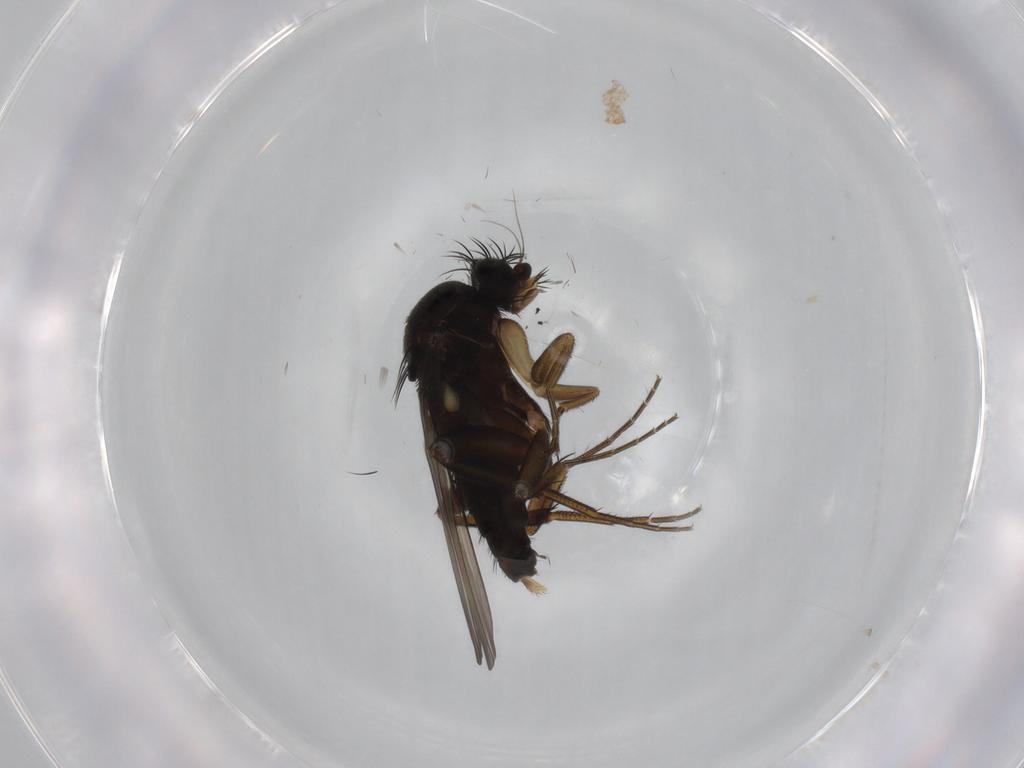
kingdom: Animalia
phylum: Arthropoda
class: Insecta
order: Diptera
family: Phoridae
